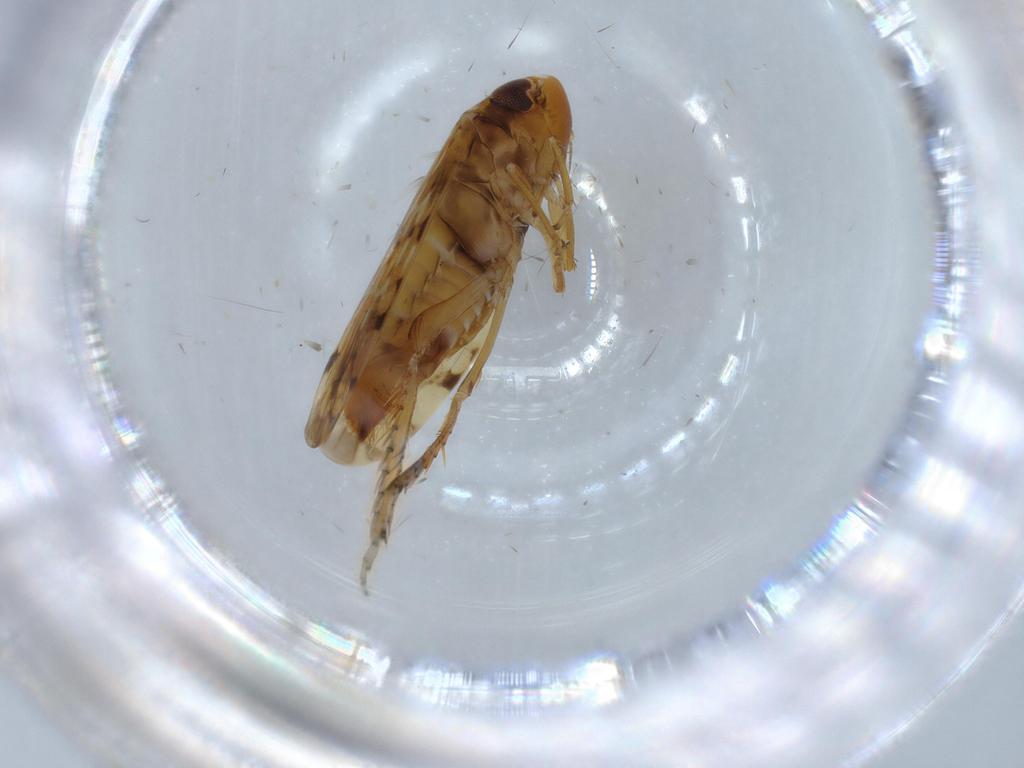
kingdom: Animalia
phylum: Arthropoda
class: Insecta
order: Hemiptera
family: Cicadellidae
